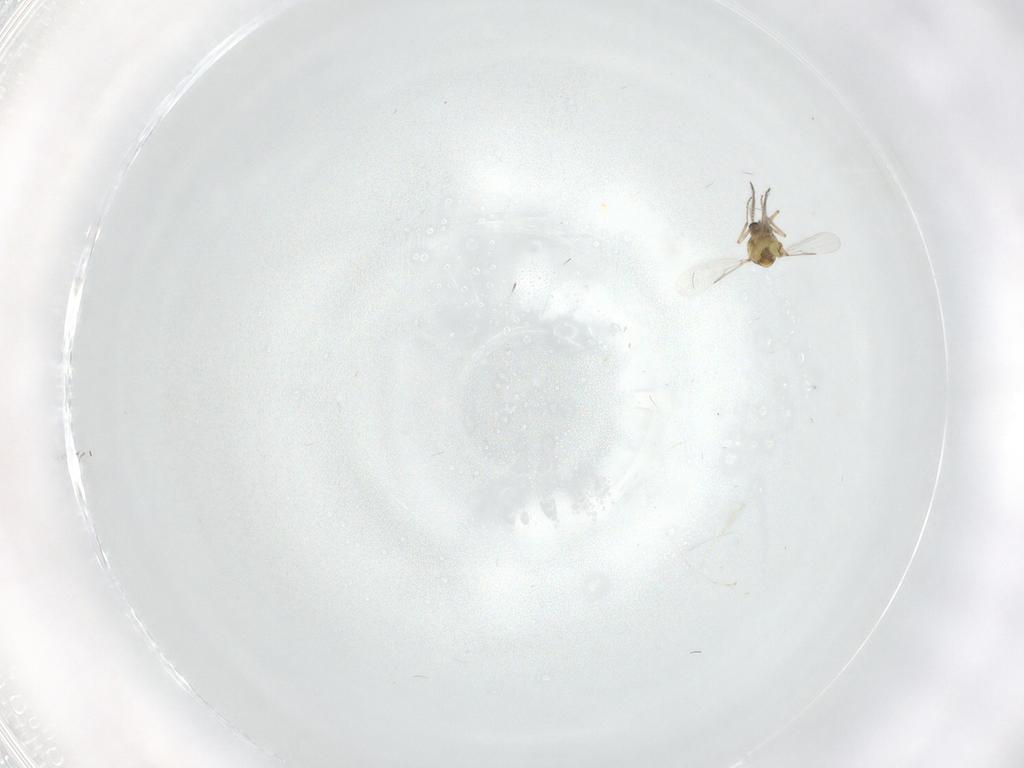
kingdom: Animalia
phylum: Arthropoda
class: Insecta
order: Diptera
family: Ceratopogonidae
